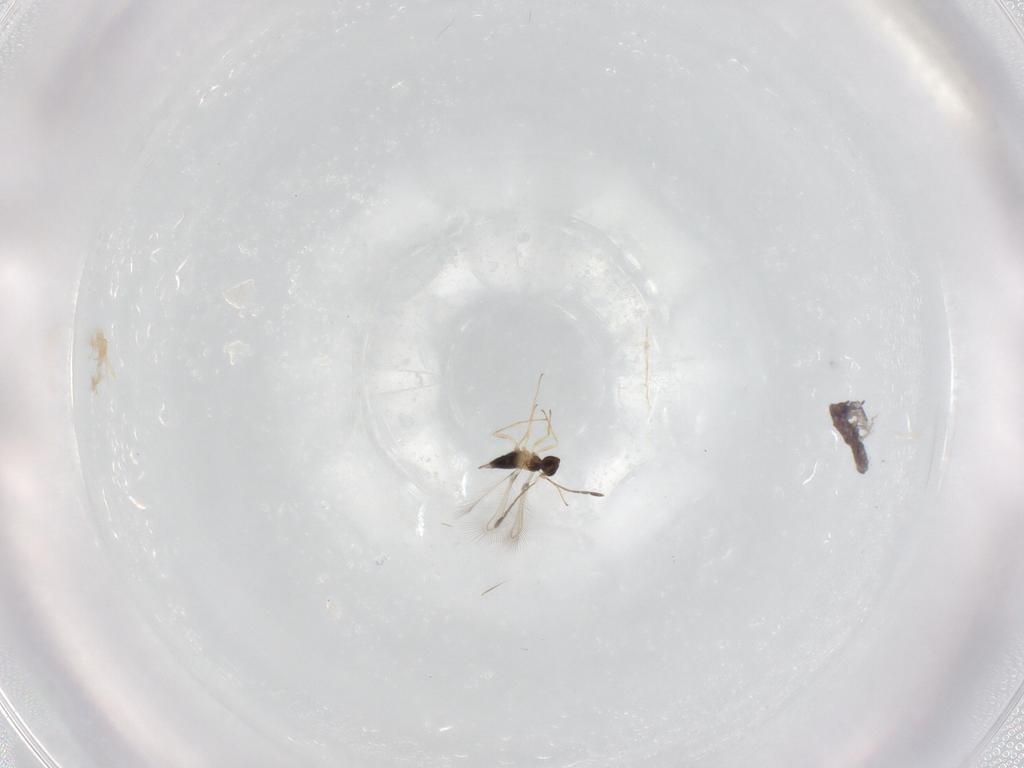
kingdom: Animalia
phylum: Arthropoda
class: Insecta
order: Hymenoptera
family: Mymaridae
